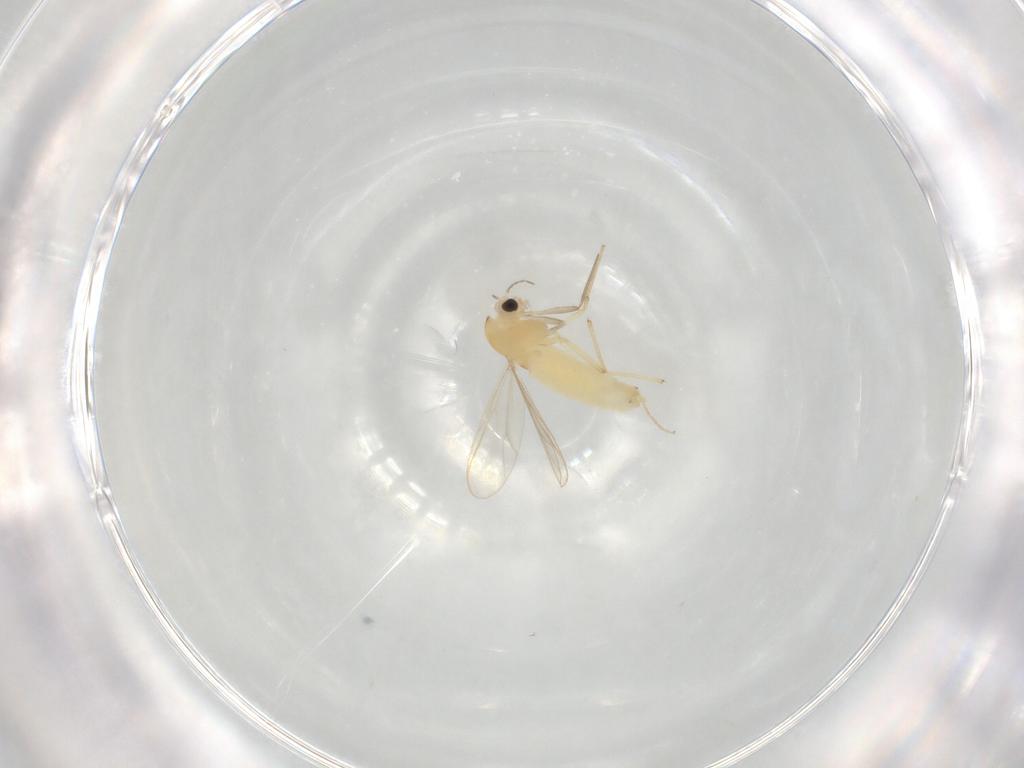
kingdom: Animalia
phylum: Arthropoda
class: Insecta
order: Diptera
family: Chironomidae
